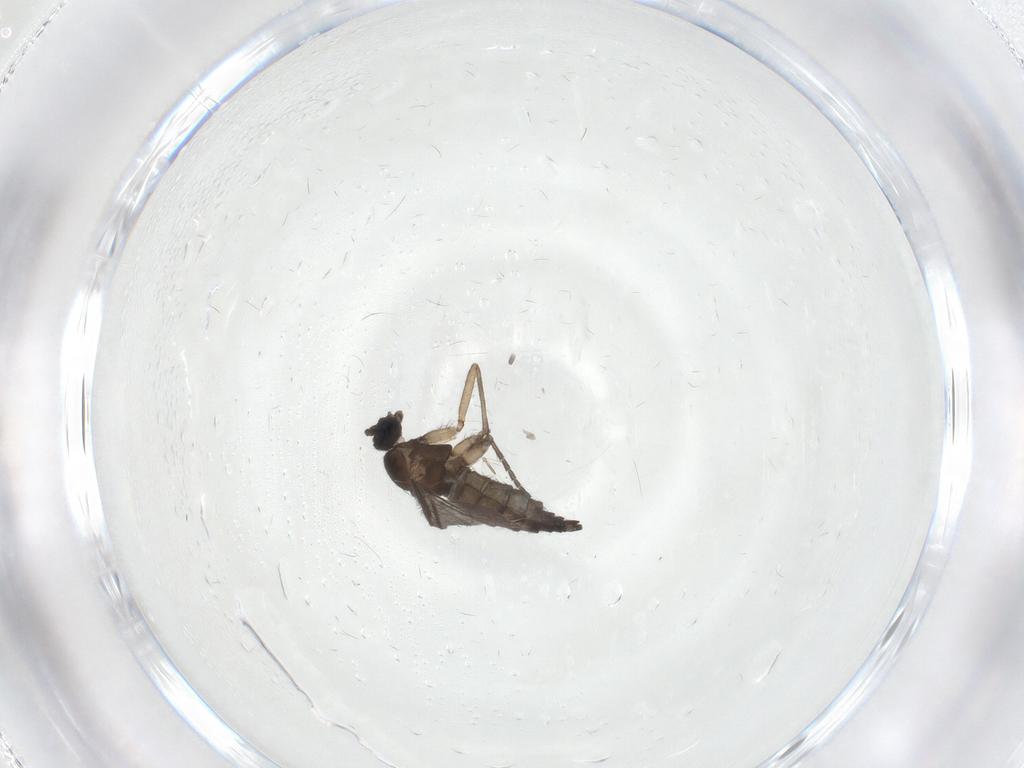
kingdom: Animalia
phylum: Arthropoda
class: Insecta
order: Diptera
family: Sciaridae
